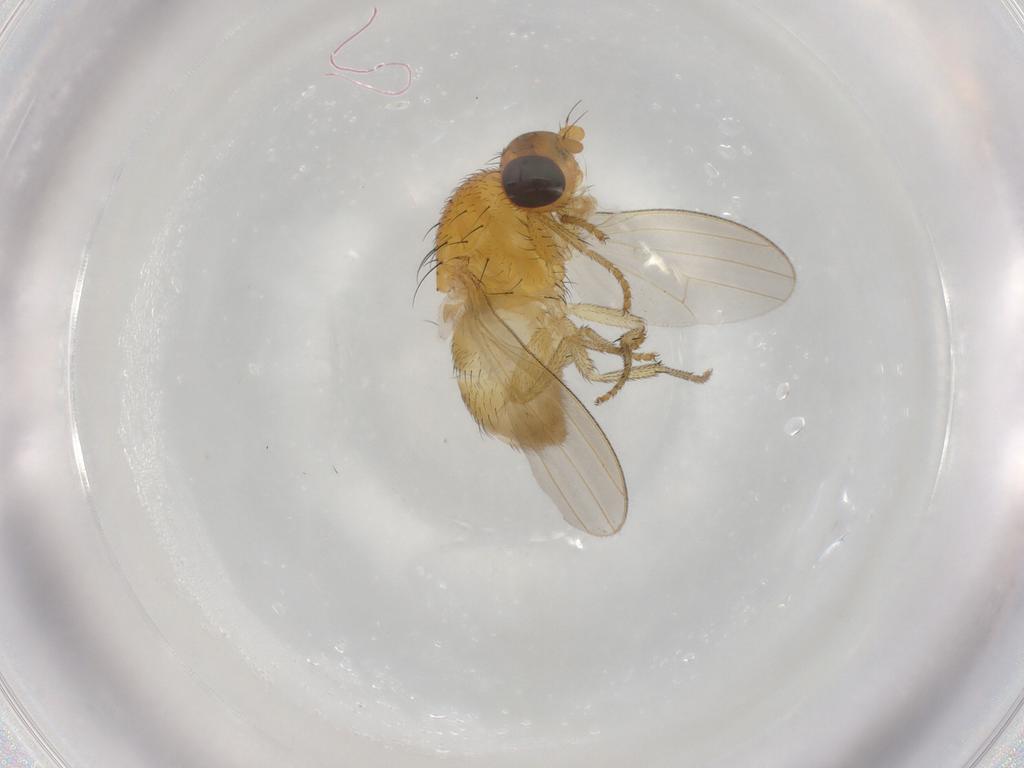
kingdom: Animalia
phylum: Arthropoda
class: Insecta
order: Diptera
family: Lauxaniidae
